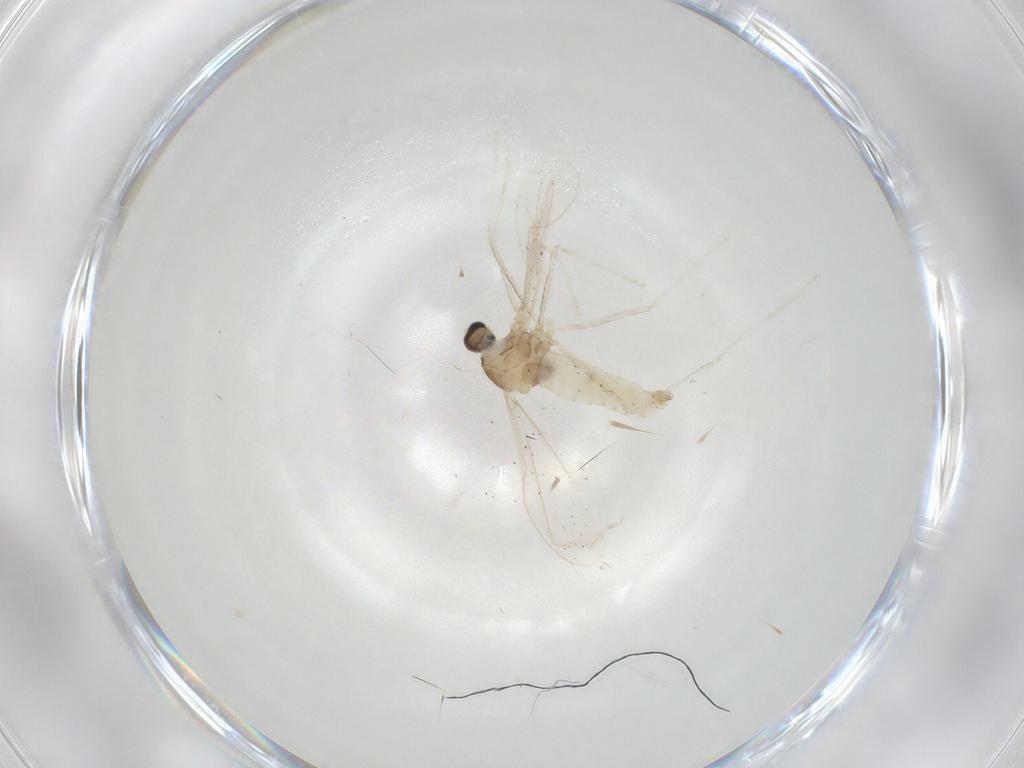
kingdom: Animalia
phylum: Arthropoda
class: Insecta
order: Diptera
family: Cecidomyiidae
